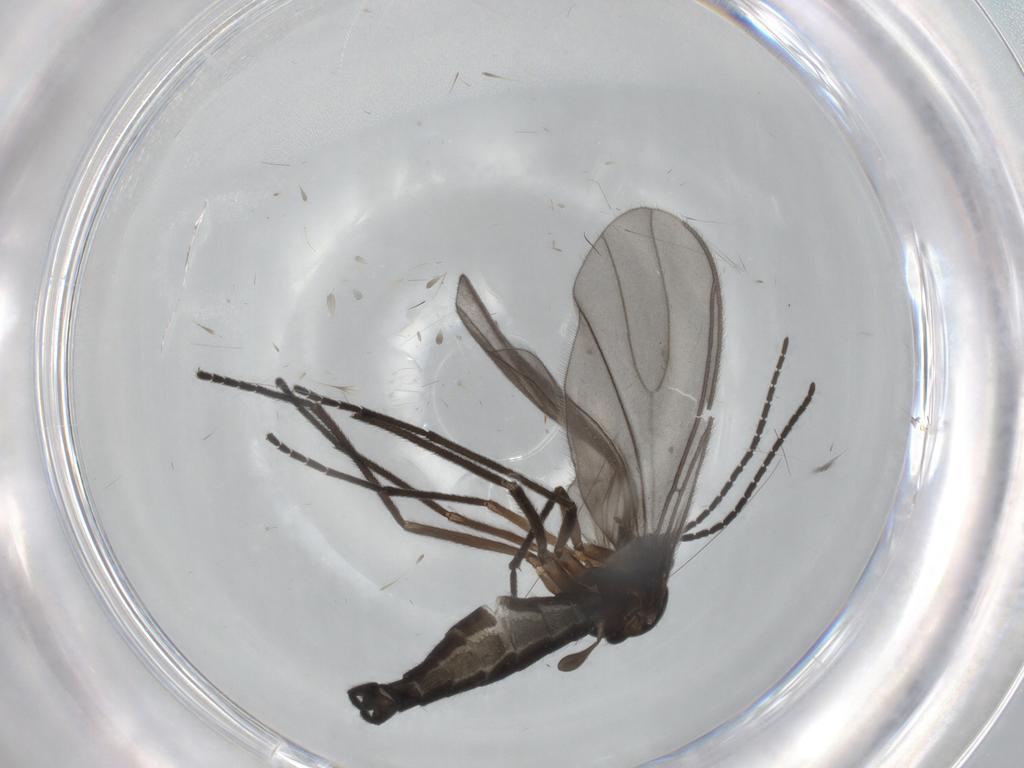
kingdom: Animalia
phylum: Arthropoda
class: Insecta
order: Diptera
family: Sciaridae
